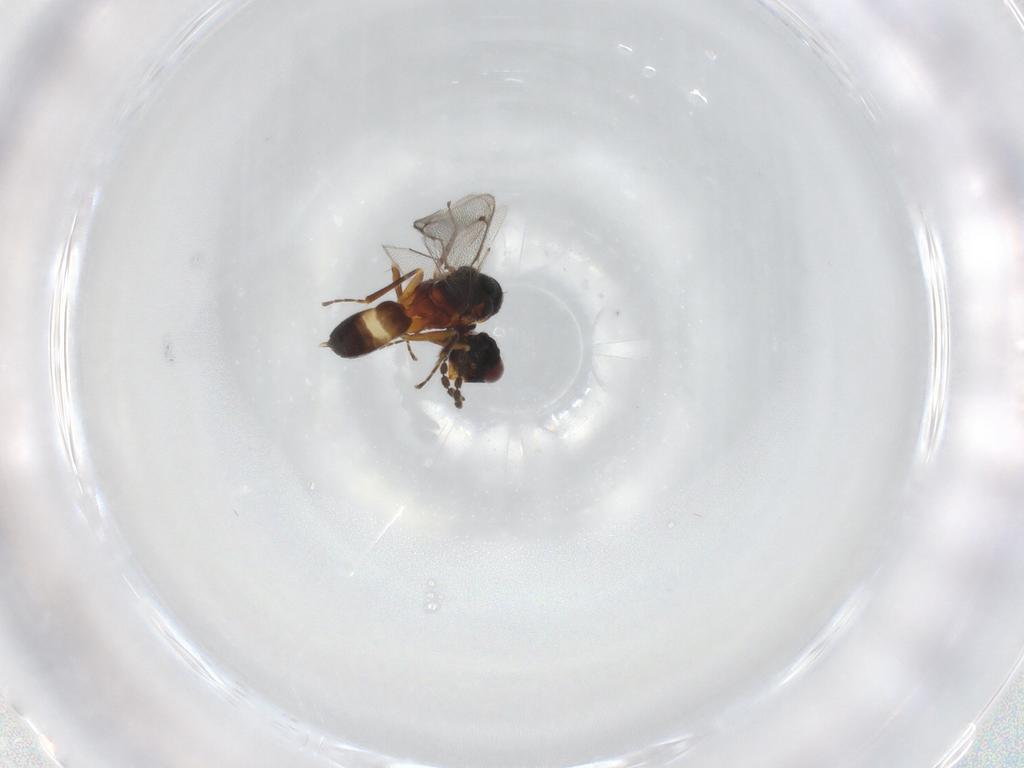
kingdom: Animalia
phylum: Arthropoda
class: Insecta
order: Hymenoptera
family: Eulophidae
